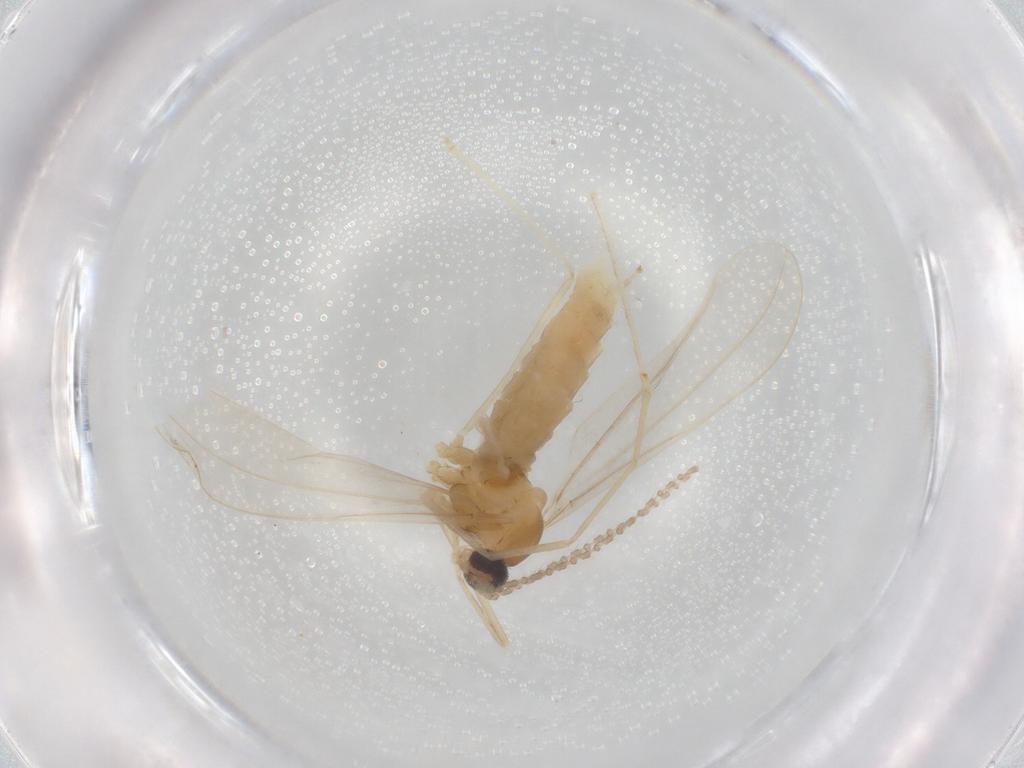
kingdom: Animalia
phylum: Arthropoda
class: Insecta
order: Diptera
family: Cecidomyiidae
